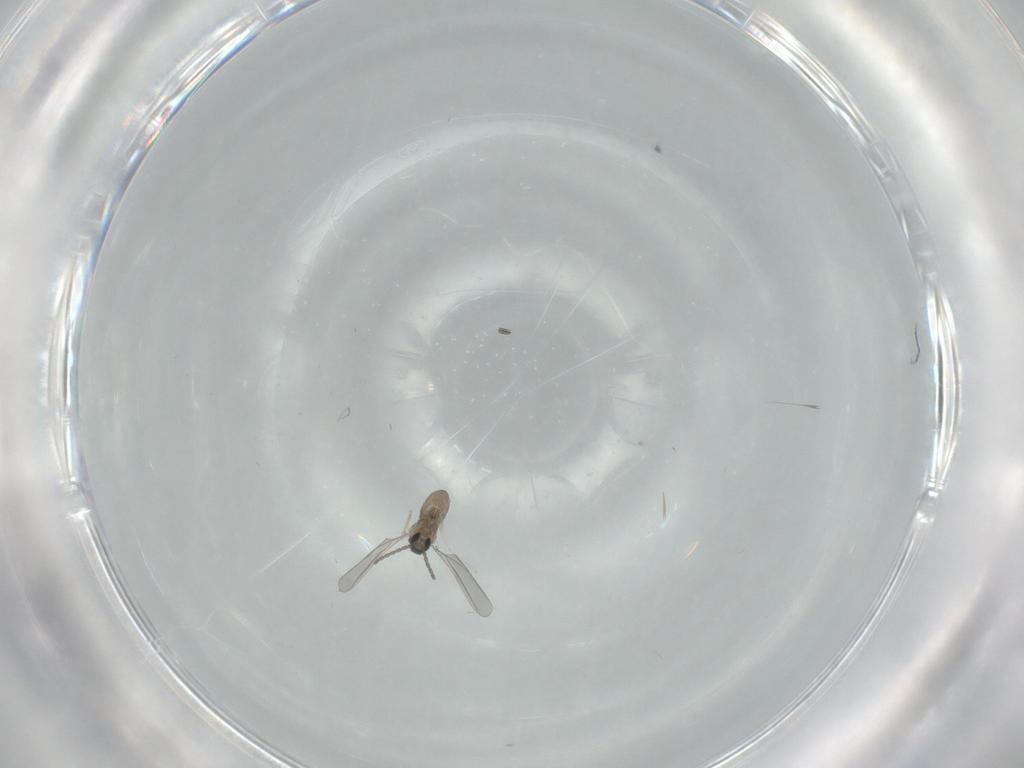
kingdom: Animalia
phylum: Arthropoda
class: Insecta
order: Diptera
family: Cecidomyiidae
